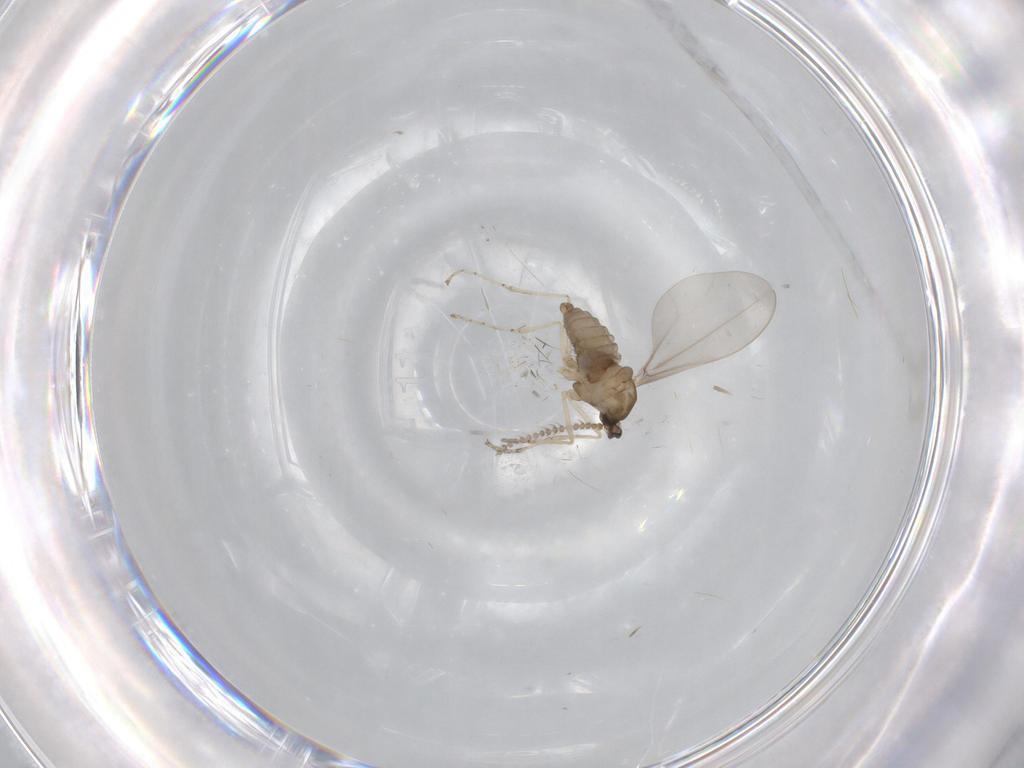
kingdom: Animalia
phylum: Arthropoda
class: Insecta
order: Diptera
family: Cecidomyiidae
